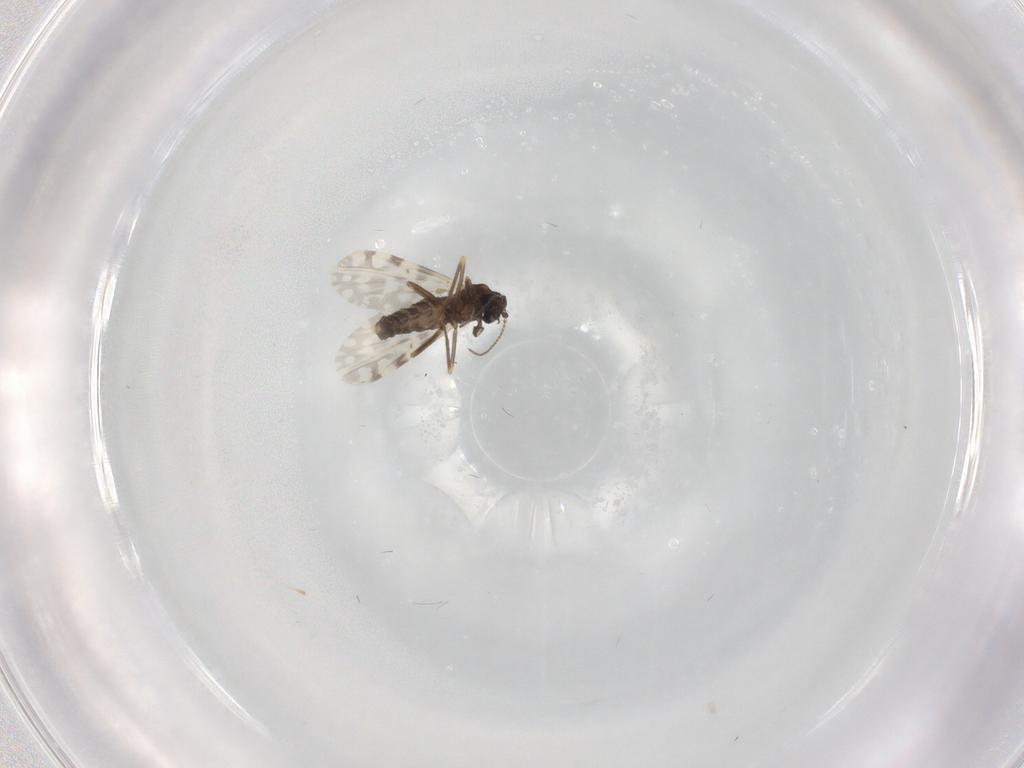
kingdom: Animalia
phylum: Arthropoda
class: Insecta
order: Diptera
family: Ceratopogonidae
